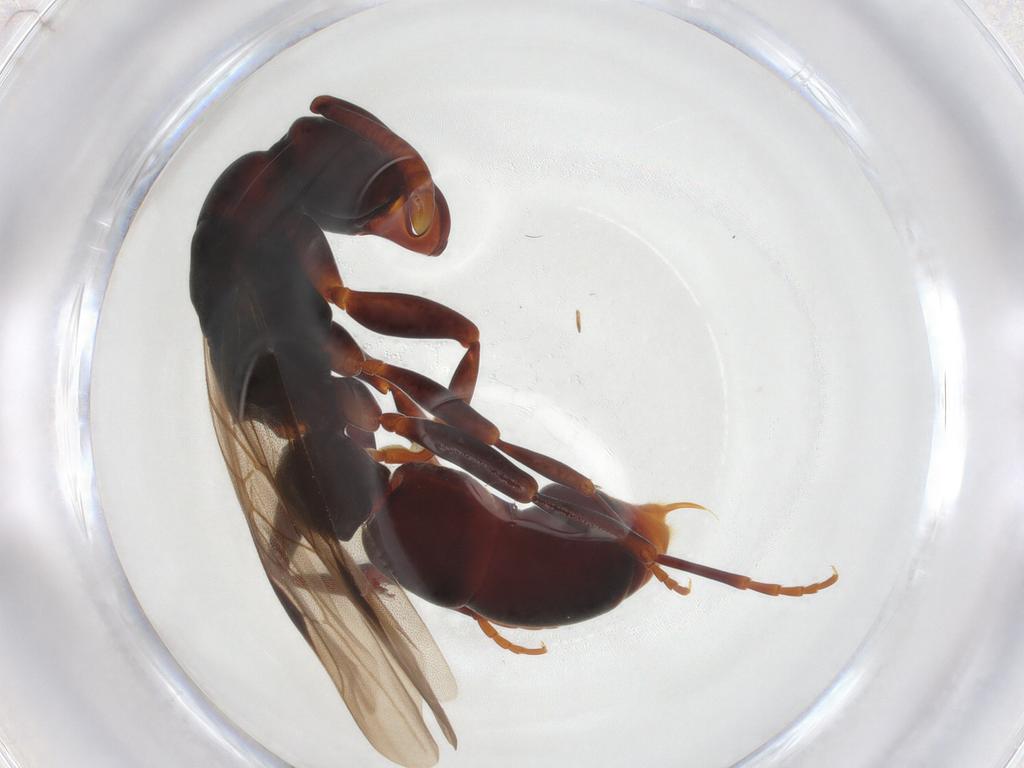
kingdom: Animalia
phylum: Arthropoda
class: Insecta
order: Hymenoptera
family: Formicidae
